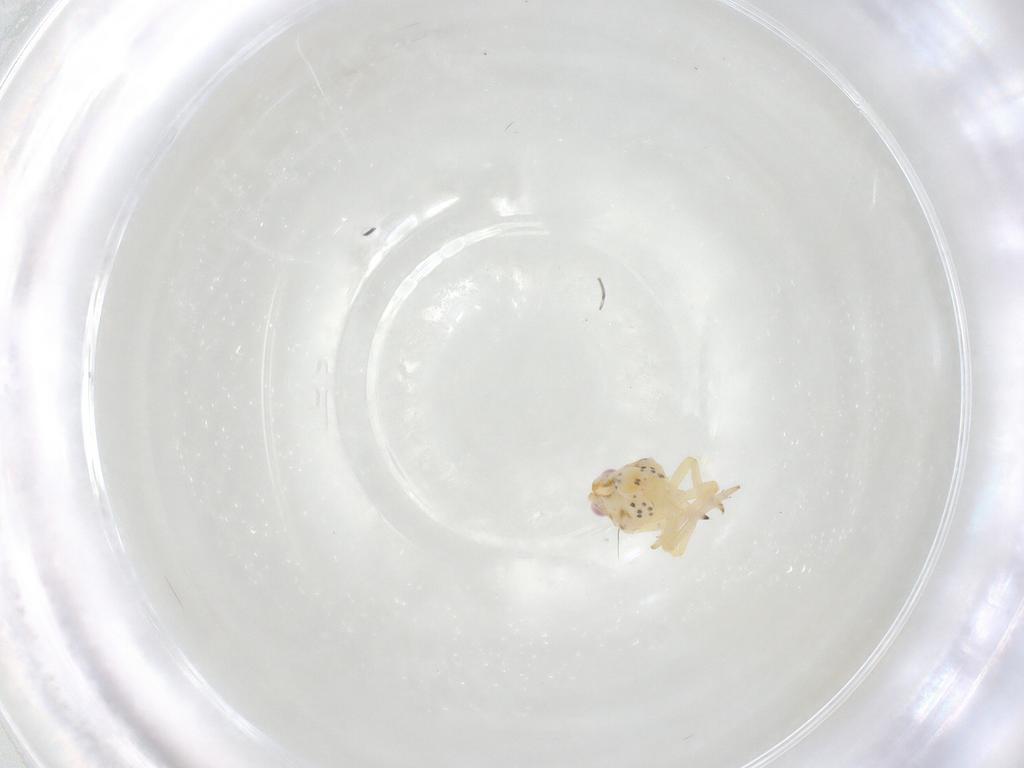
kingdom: Animalia
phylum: Arthropoda
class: Insecta
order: Hemiptera
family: Tropiduchidae
